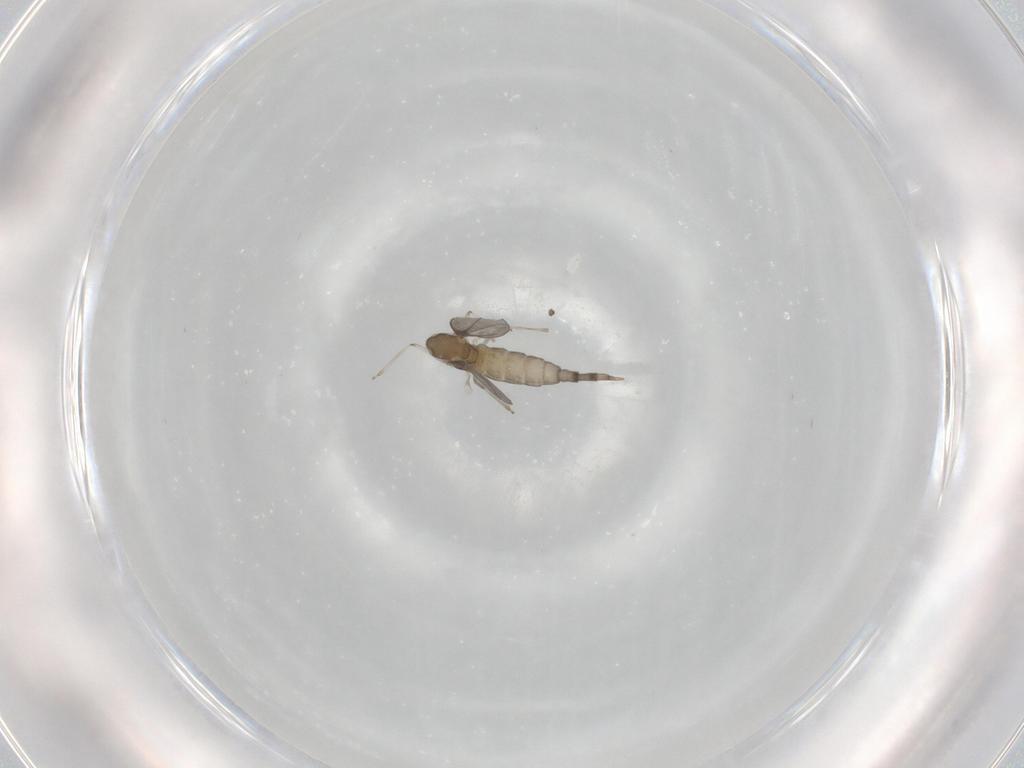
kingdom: Animalia
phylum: Arthropoda
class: Insecta
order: Diptera
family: Cecidomyiidae
